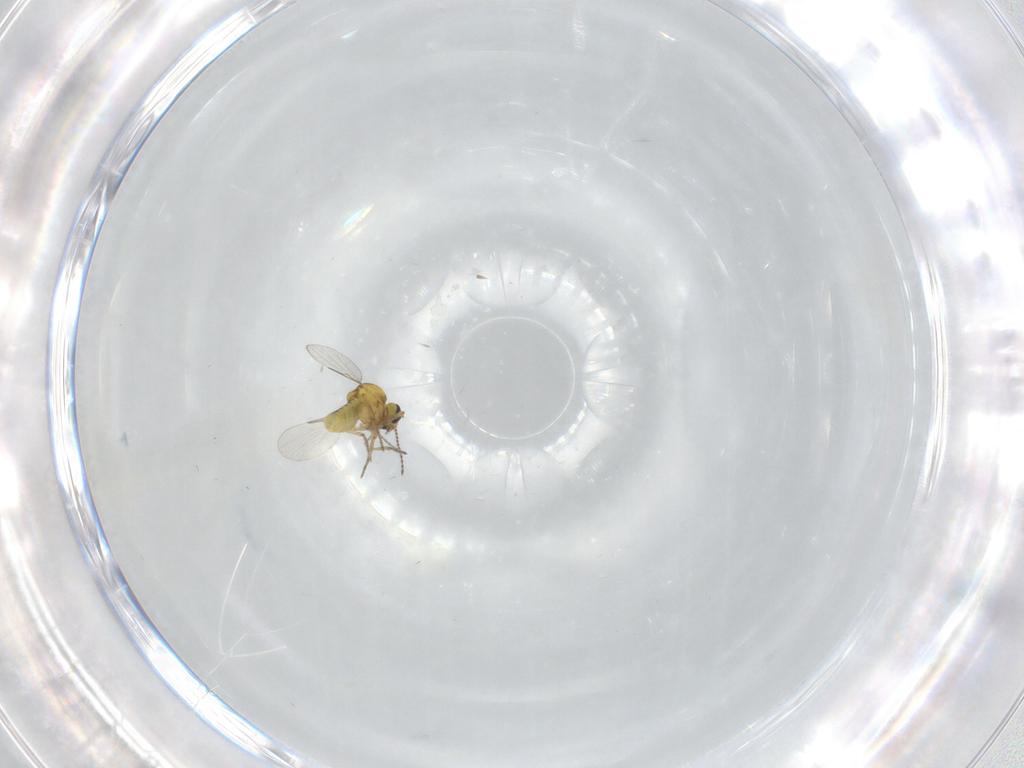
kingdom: Animalia
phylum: Arthropoda
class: Insecta
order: Diptera
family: Ceratopogonidae
